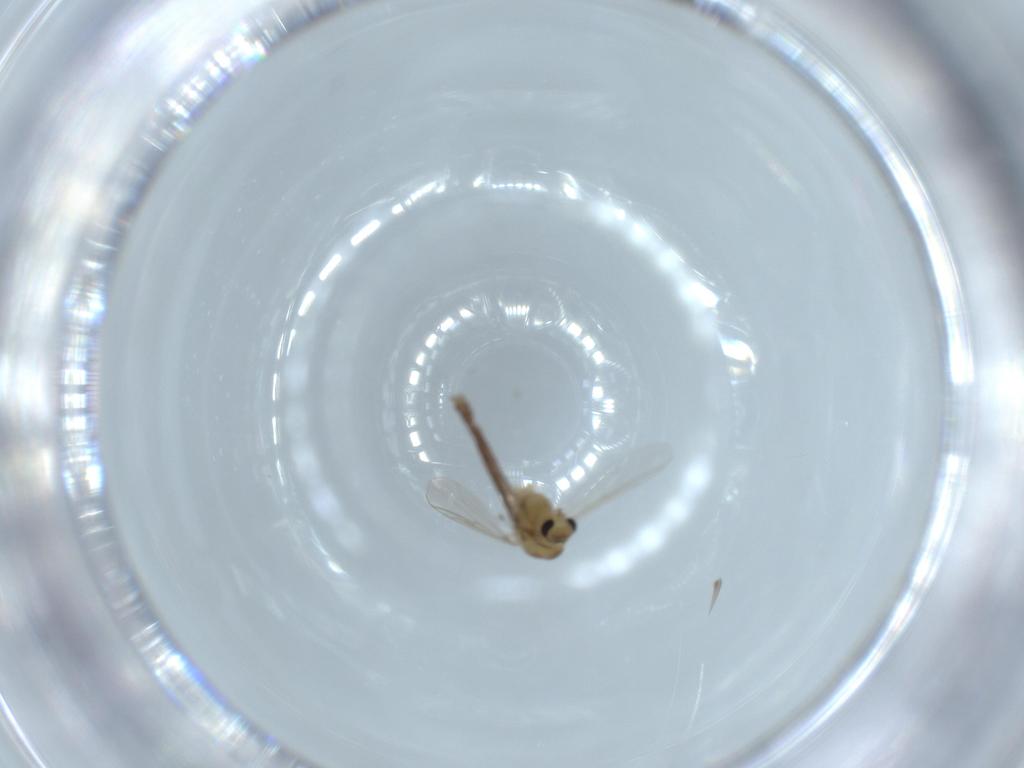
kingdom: Animalia
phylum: Arthropoda
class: Insecta
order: Diptera
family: Chironomidae
